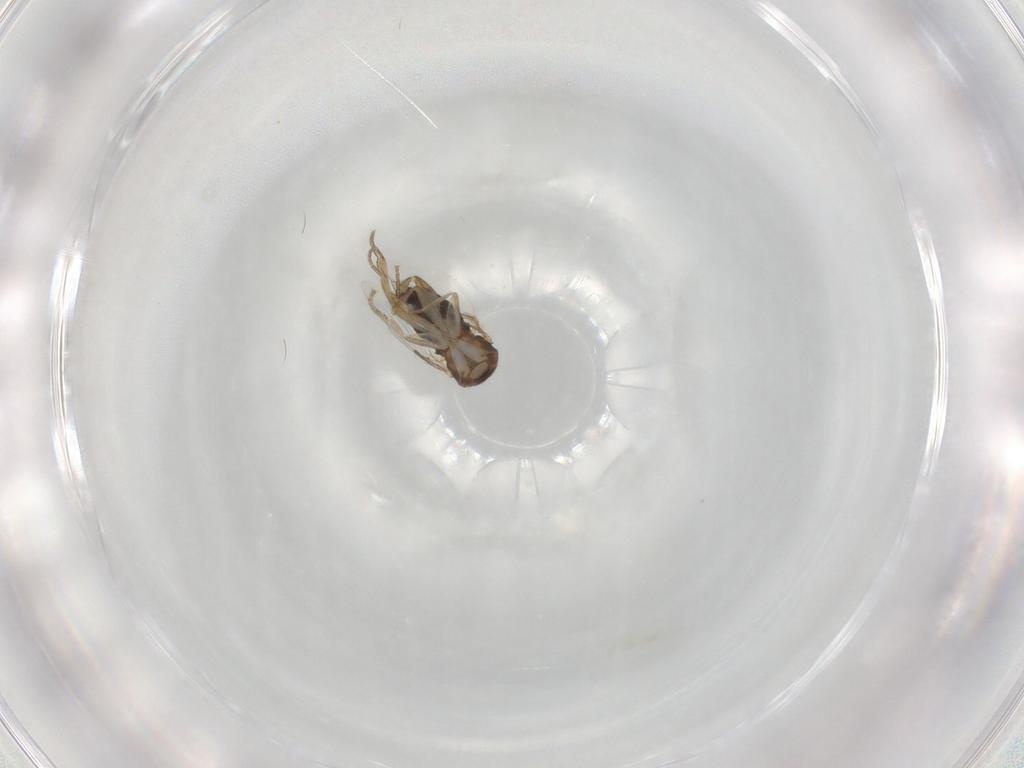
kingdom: Animalia
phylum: Arthropoda
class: Insecta
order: Diptera
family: Phoridae
